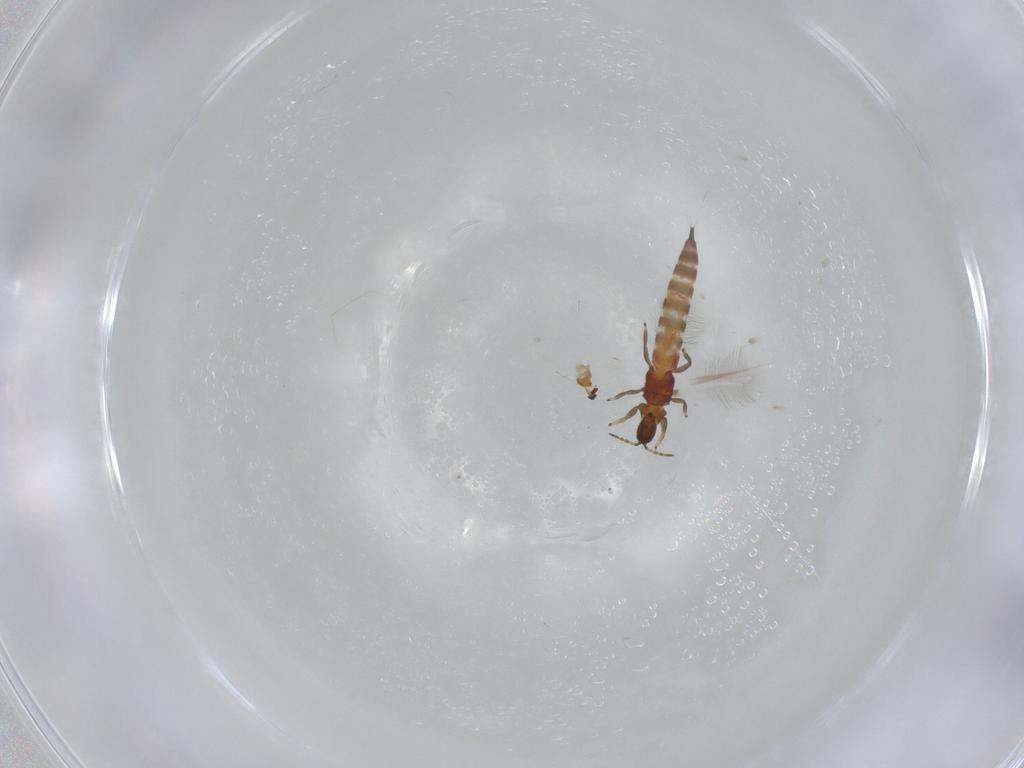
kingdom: Animalia
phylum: Arthropoda
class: Insecta
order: Thysanoptera
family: Phlaeothripidae
